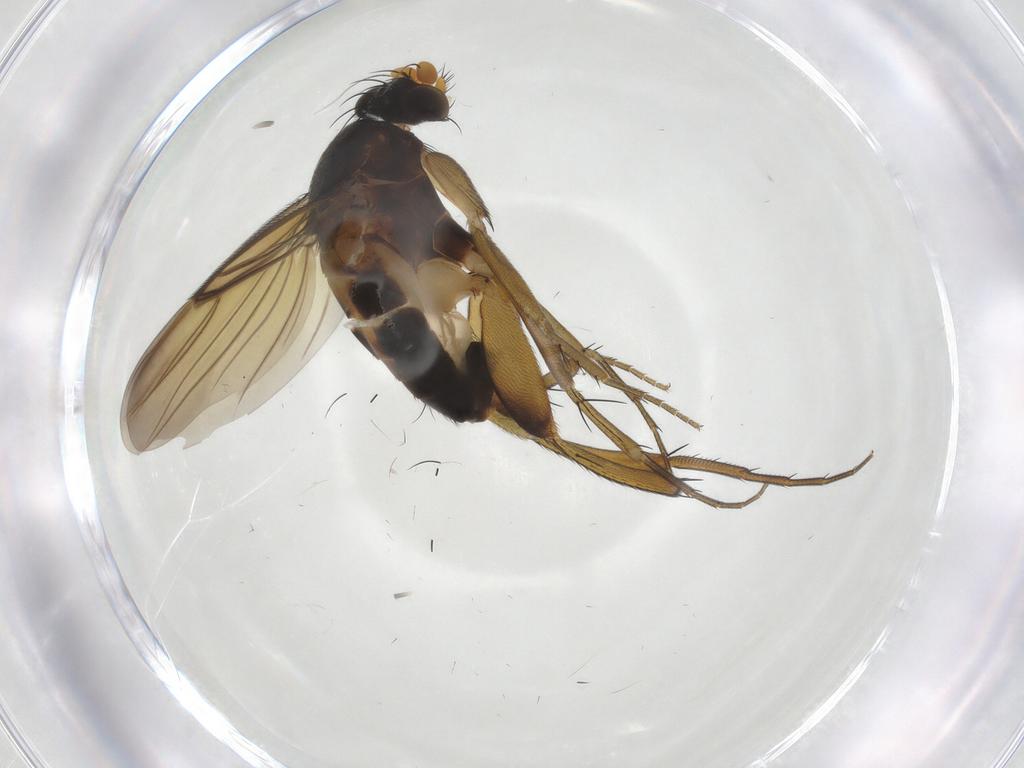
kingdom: Animalia
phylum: Arthropoda
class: Insecta
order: Diptera
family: Phoridae
